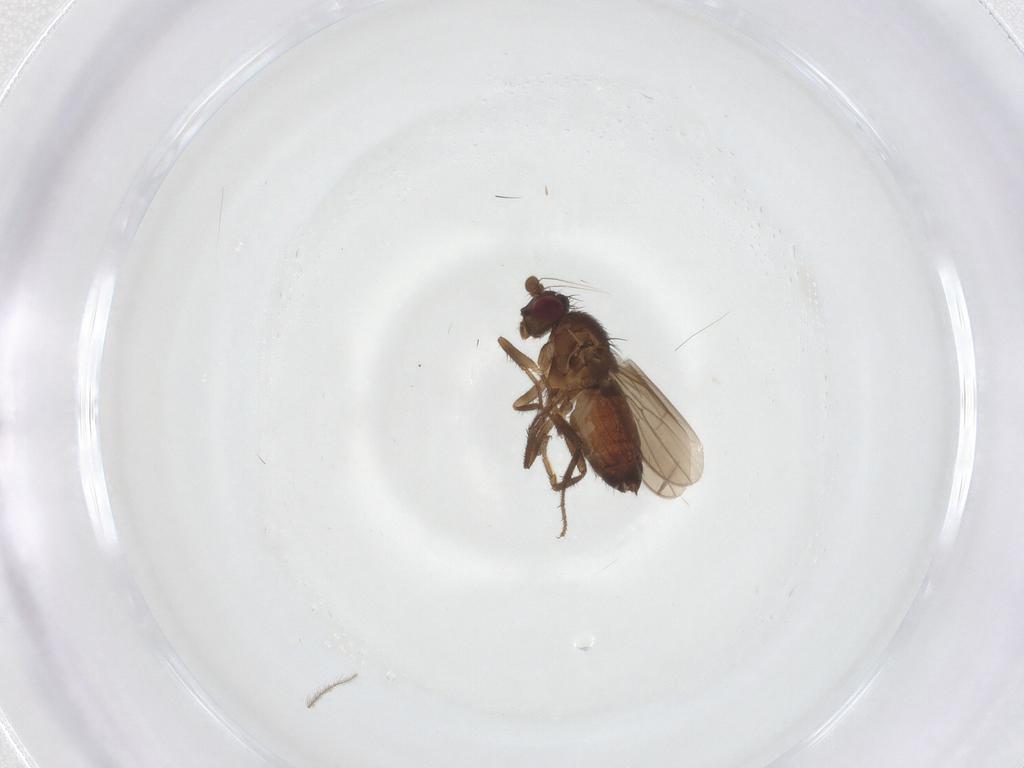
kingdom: Animalia
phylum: Arthropoda
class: Insecta
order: Diptera
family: Sphaeroceridae
